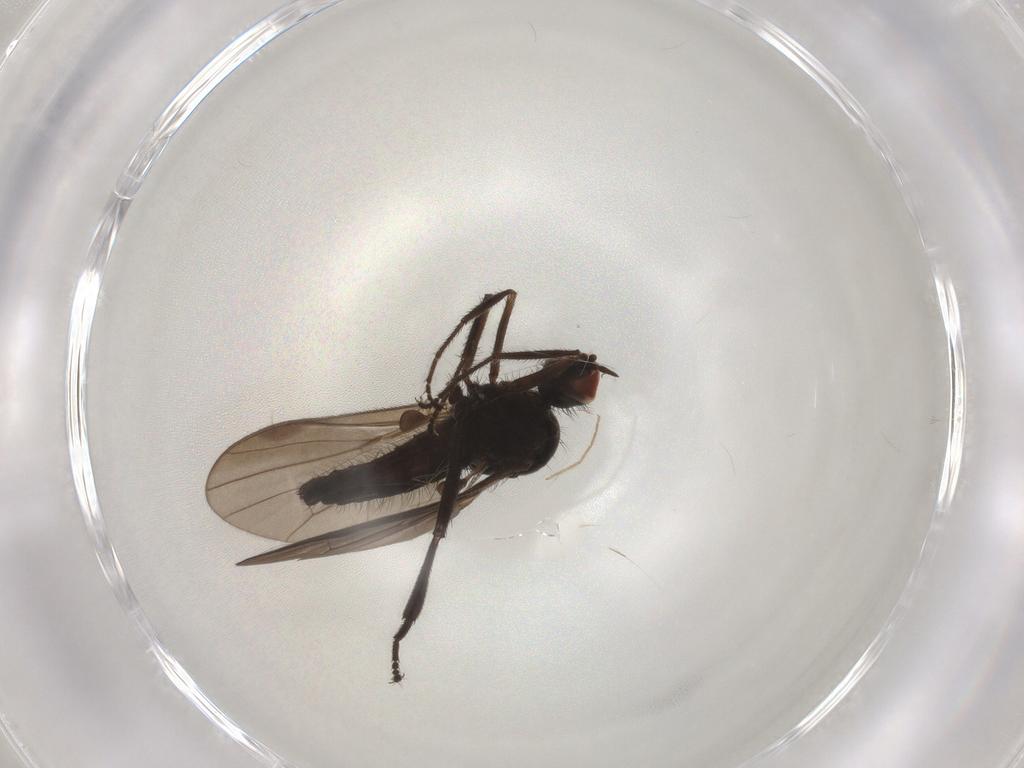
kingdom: Animalia
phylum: Arthropoda
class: Insecta
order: Diptera
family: Hybotidae
